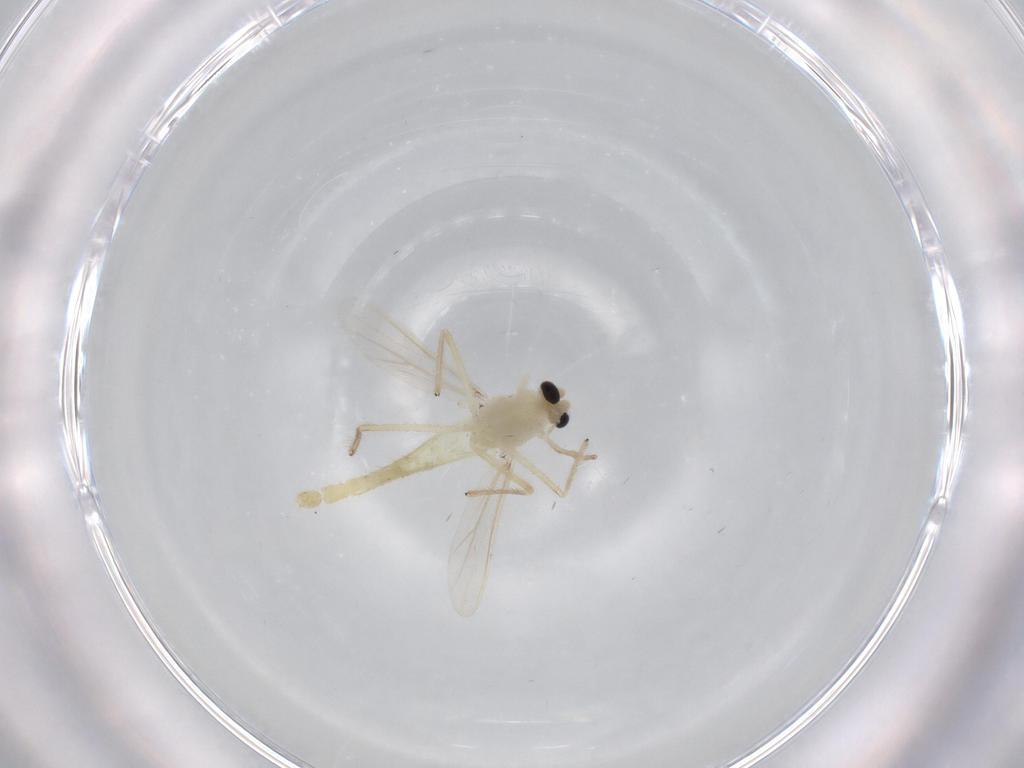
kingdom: Animalia
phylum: Arthropoda
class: Insecta
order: Diptera
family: Chironomidae
